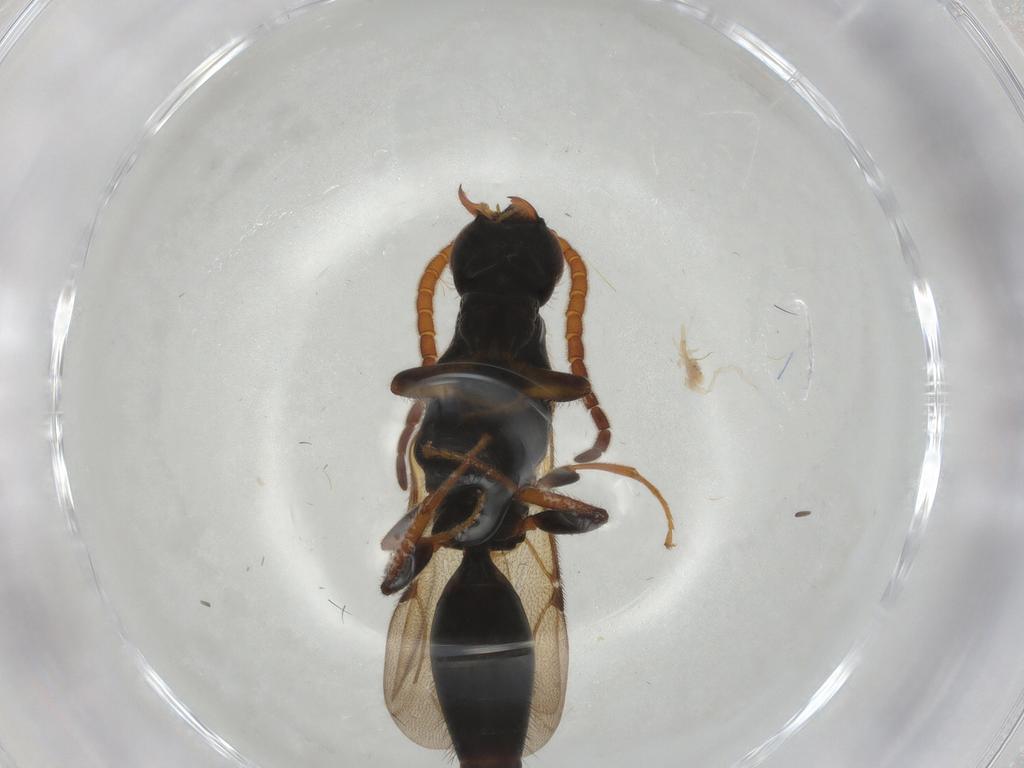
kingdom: Animalia
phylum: Arthropoda
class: Insecta
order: Hymenoptera
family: Bethylidae
